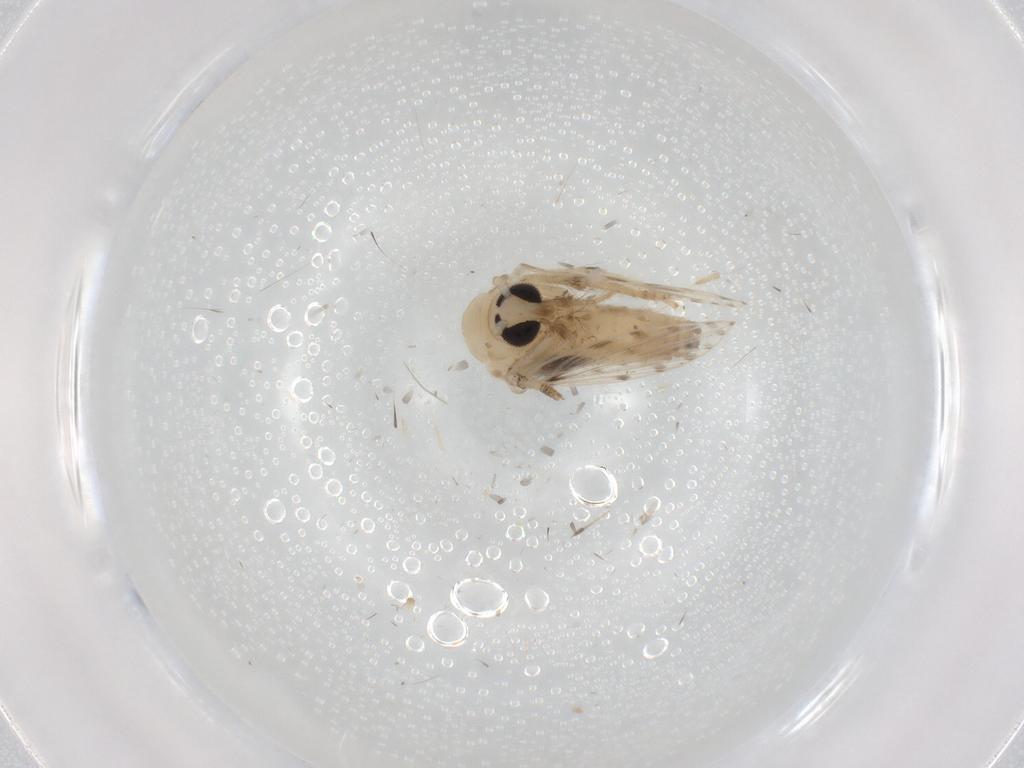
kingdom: Animalia
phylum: Arthropoda
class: Insecta
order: Diptera
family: Psychodidae
